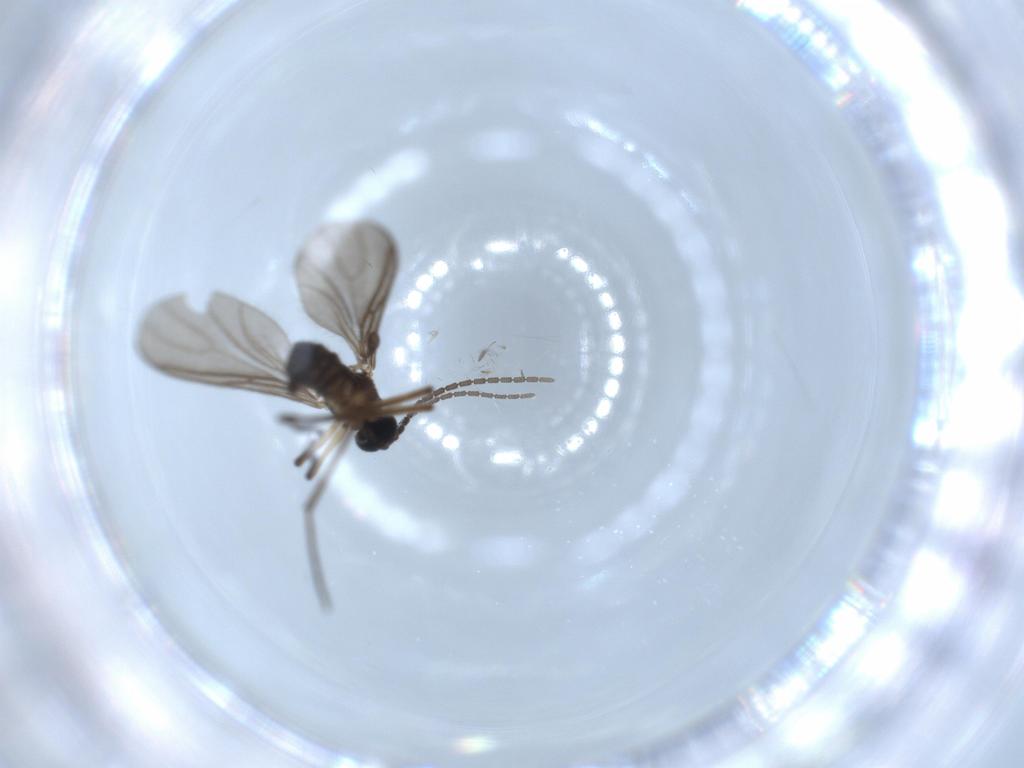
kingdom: Animalia
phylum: Arthropoda
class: Insecta
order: Diptera
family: Sciaridae
